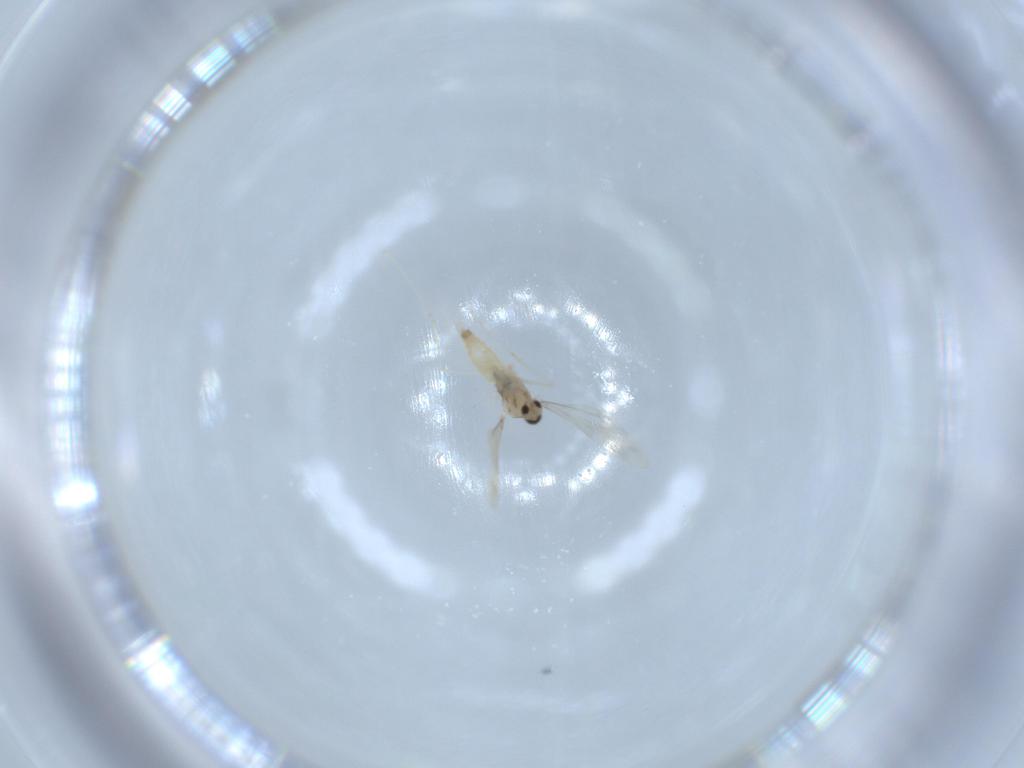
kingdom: Animalia
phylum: Arthropoda
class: Insecta
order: Diptera
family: Cecidomyiidae
